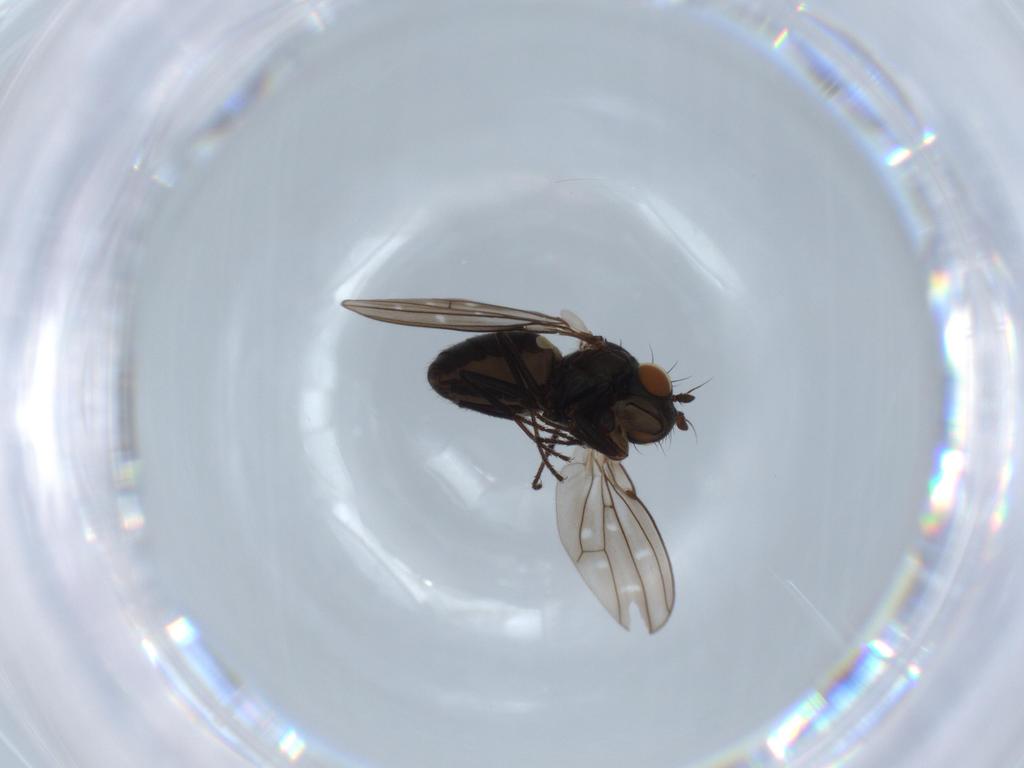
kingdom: Animalia
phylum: Arthropoda
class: Insecta
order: Diptera
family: Ephydridae
